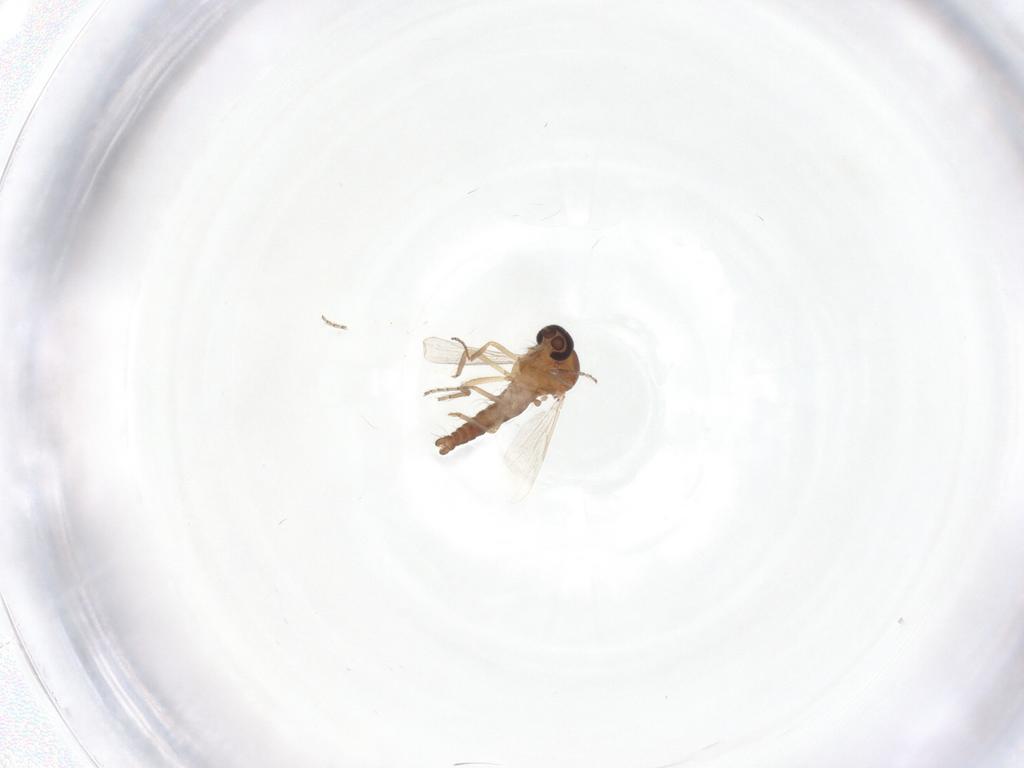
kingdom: Animalia
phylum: Arthropoda
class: Insecta
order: Diptera
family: Ceratopogonidae
